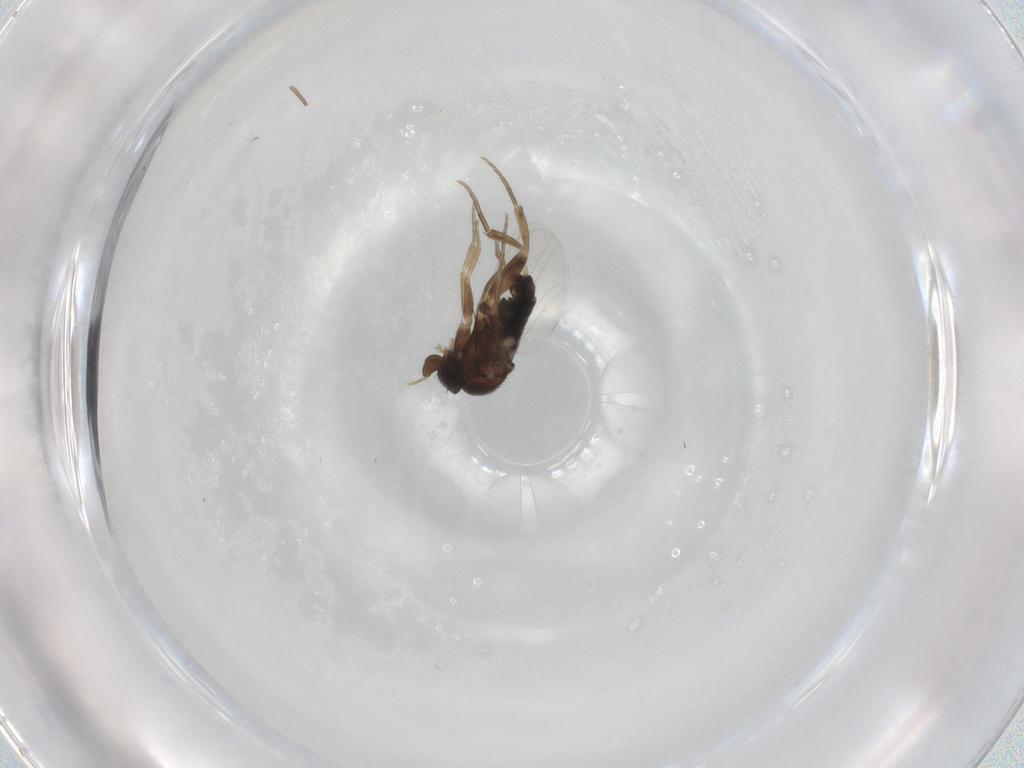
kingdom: Animalia
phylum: Arthropoda
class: Insecta
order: Diptera
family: Phoridae
